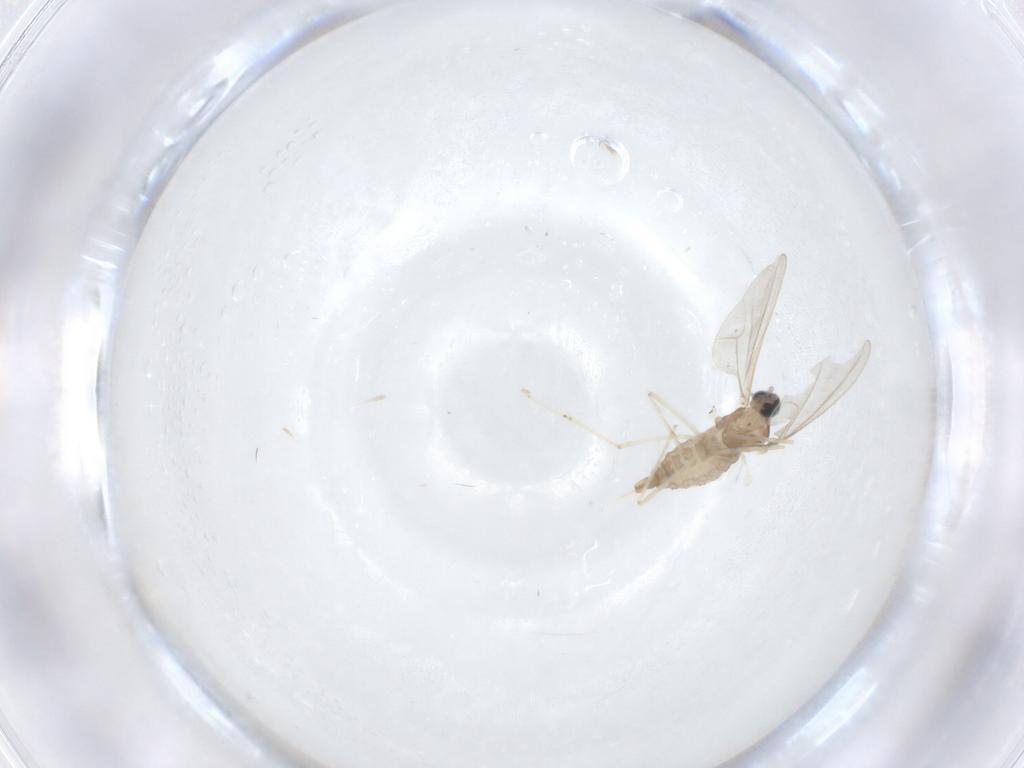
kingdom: Animalia
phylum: Arthropoda
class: Insecta
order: Diptera
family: Cecidomyiidae
